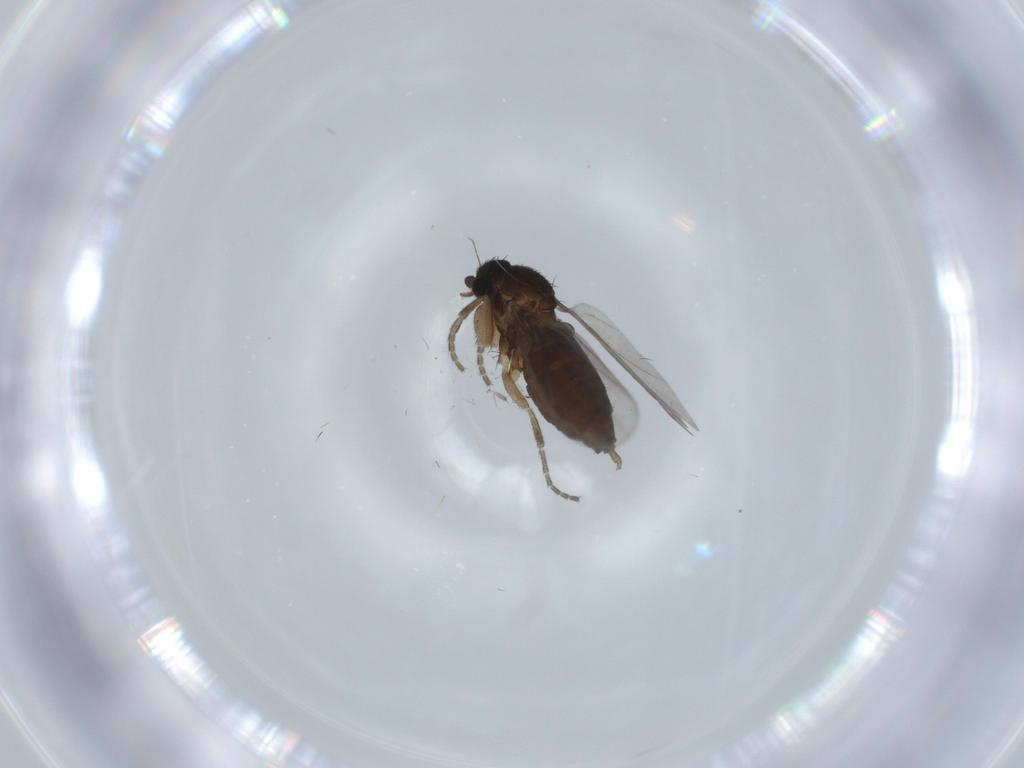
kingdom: Animalia
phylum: Arthropoda
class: Insecta
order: Diptera
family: Phoridae
